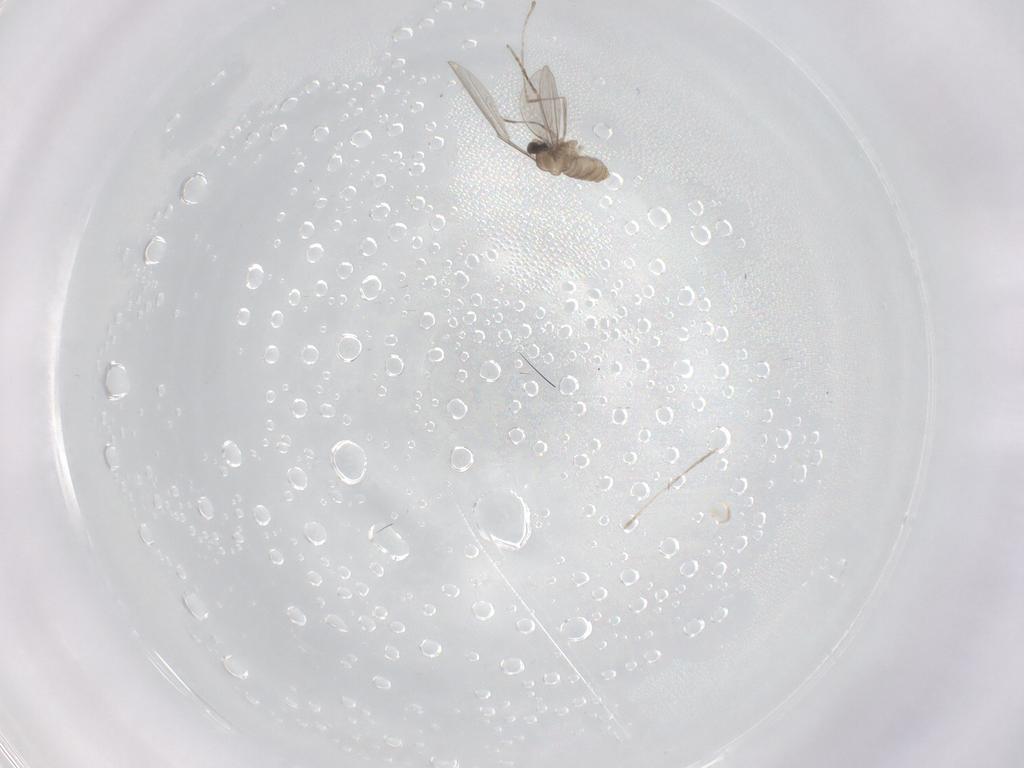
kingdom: Animalia
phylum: Arthropoda
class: Insecta
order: Diptera
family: Cecidomyiidae
